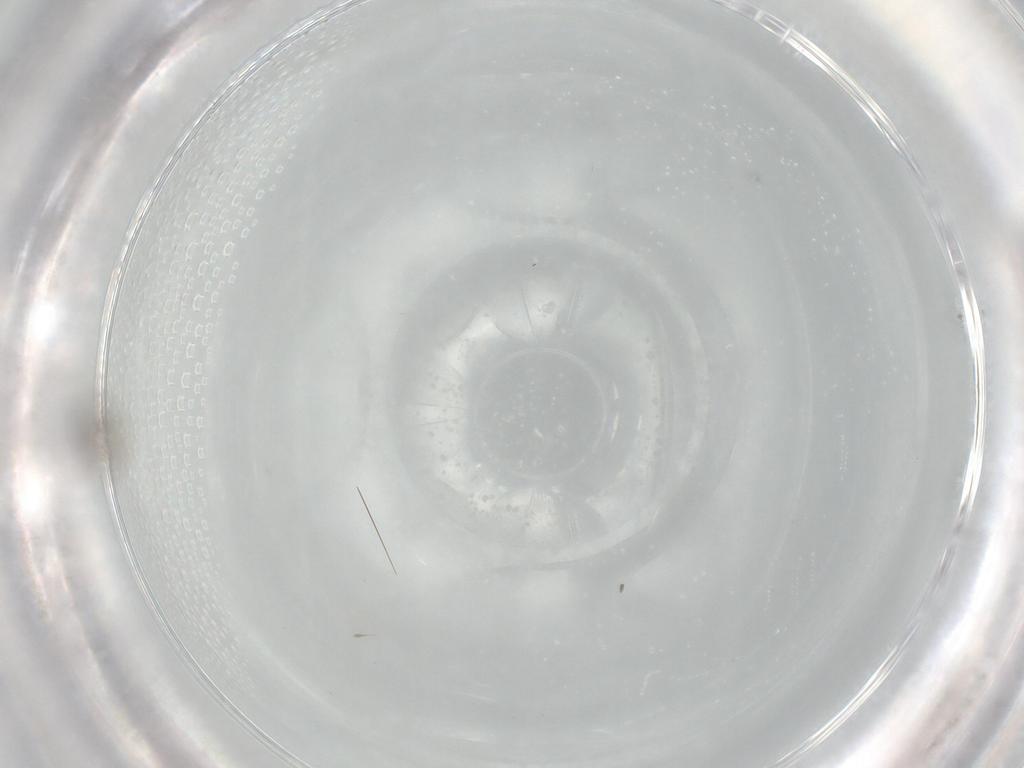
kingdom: Animalia
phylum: Arthropoda
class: Insecta
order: Diptera
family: Cecidomyiidae
